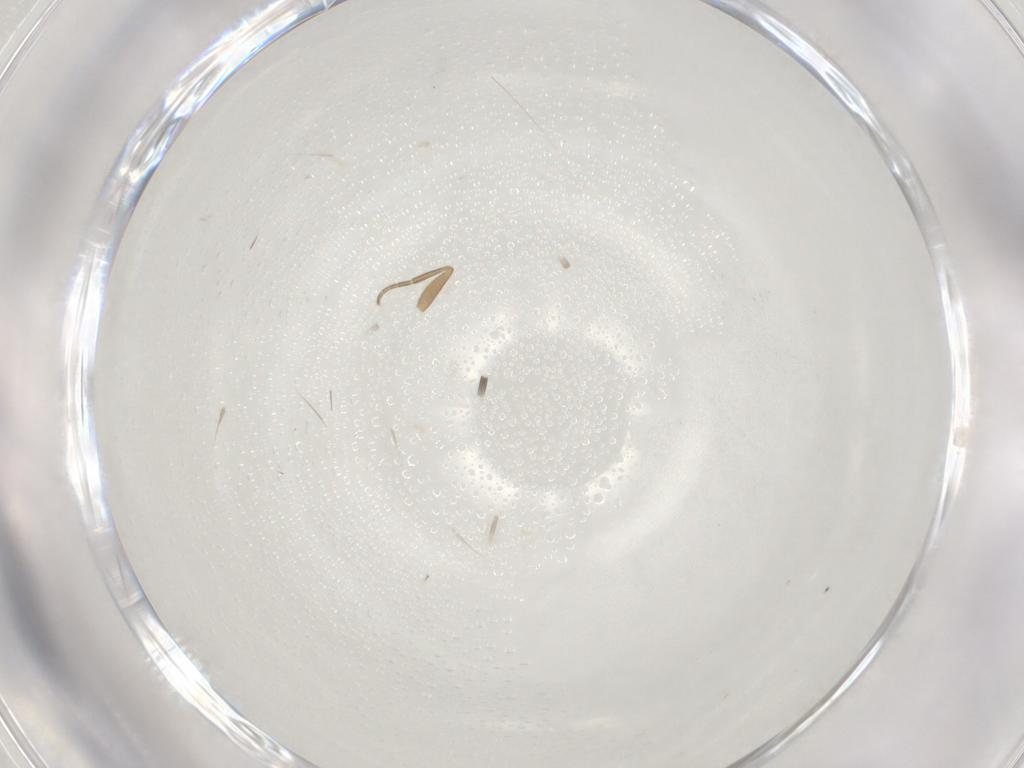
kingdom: Animalia
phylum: Arthropoda
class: Insecta
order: Diptera
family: Phoridae
